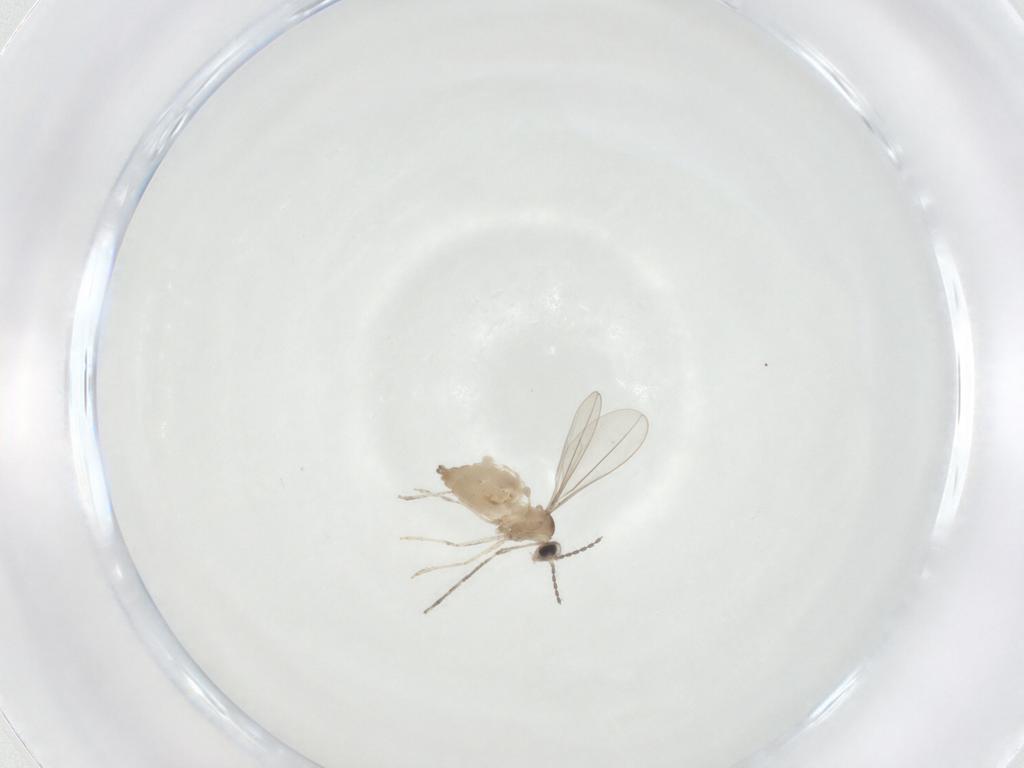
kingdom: Animalia
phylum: Arthropoda
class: Insecta
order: Diptera
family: Cecidomyiidae
